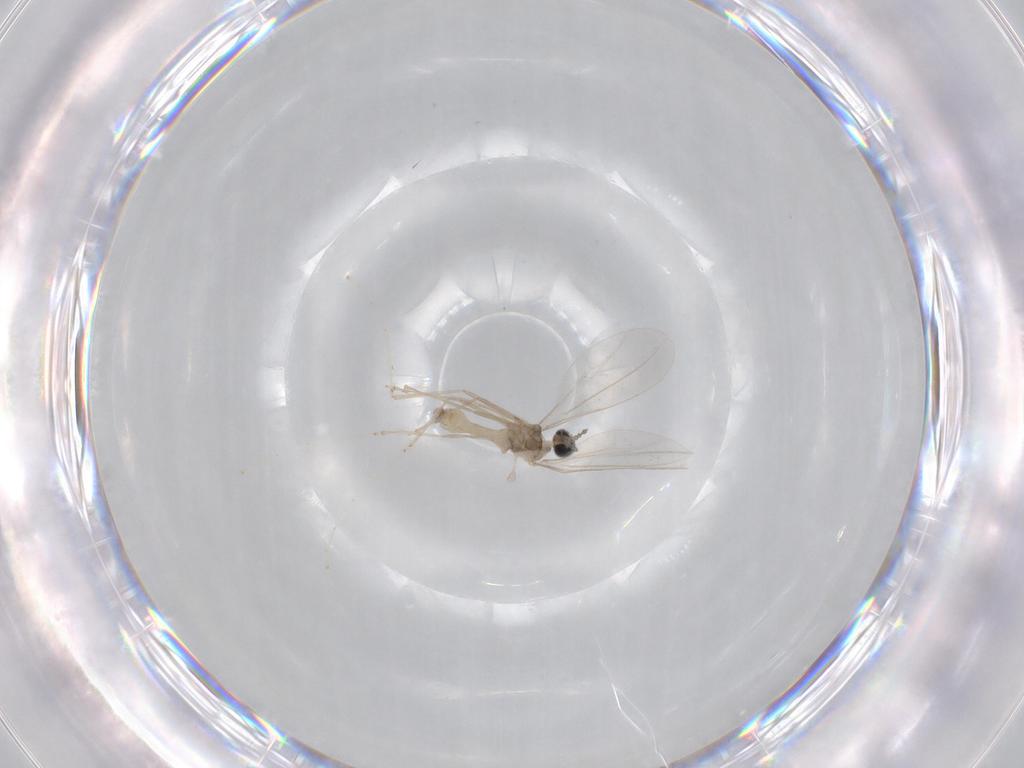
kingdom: Animalia
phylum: Arthropoda
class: Insecta
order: Diptera
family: Cecidomyiidae
